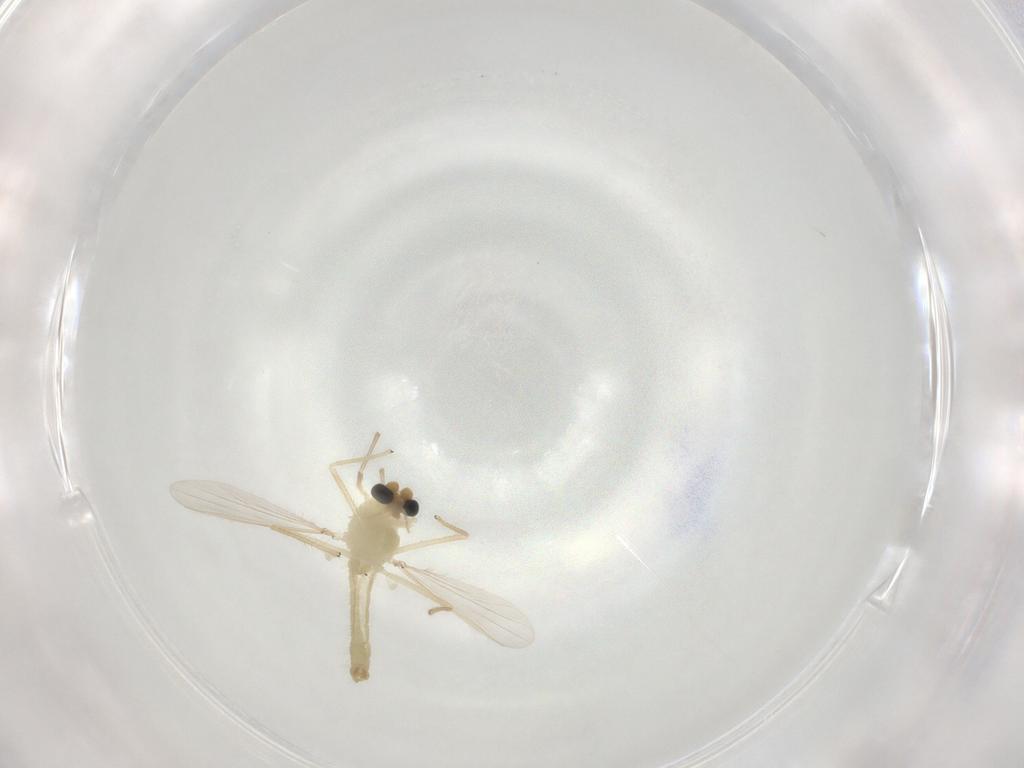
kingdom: Animalia
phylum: Arthropoda
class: Insecta
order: Diptera
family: Chironomidae
